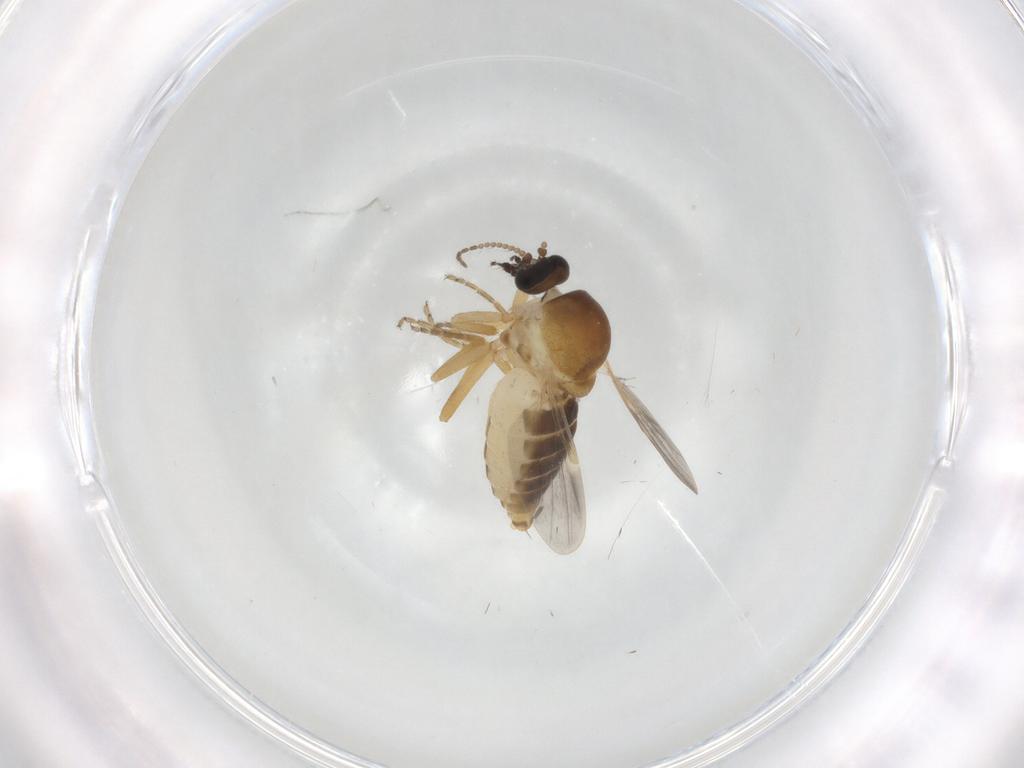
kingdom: Animalia
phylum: Arthropoda
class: Insecta
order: Diptera
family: Ceratopogonidae
